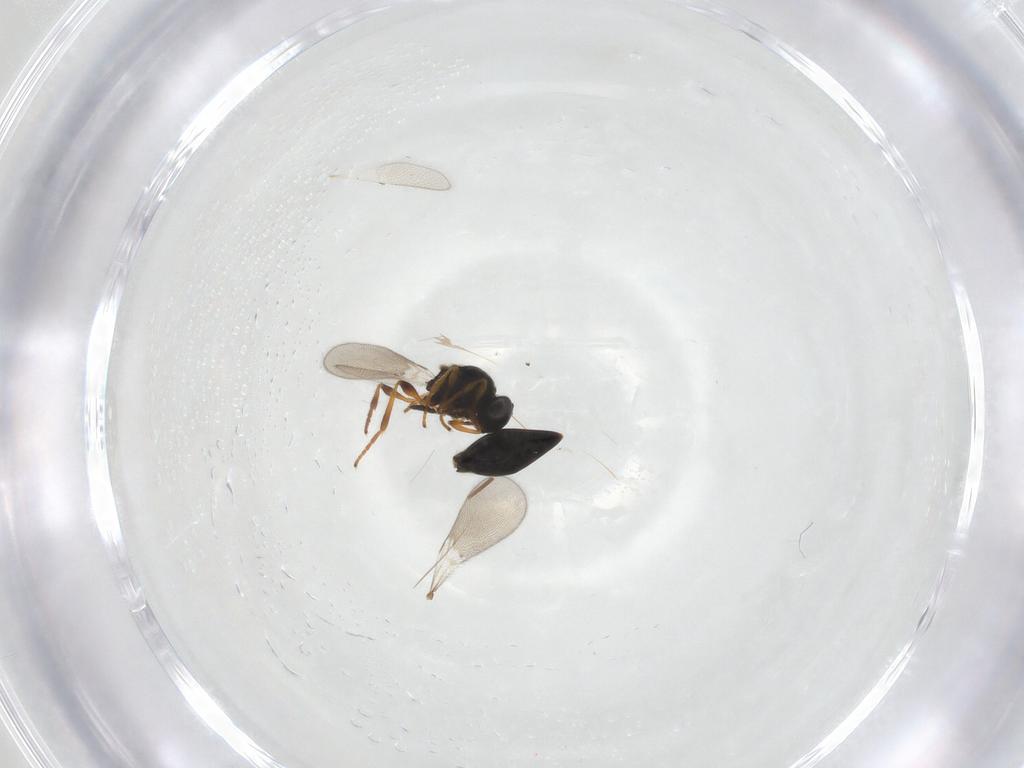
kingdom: Animalia
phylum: Arthropoda
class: Insecta
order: Hymenoptera
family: Platygastridae
